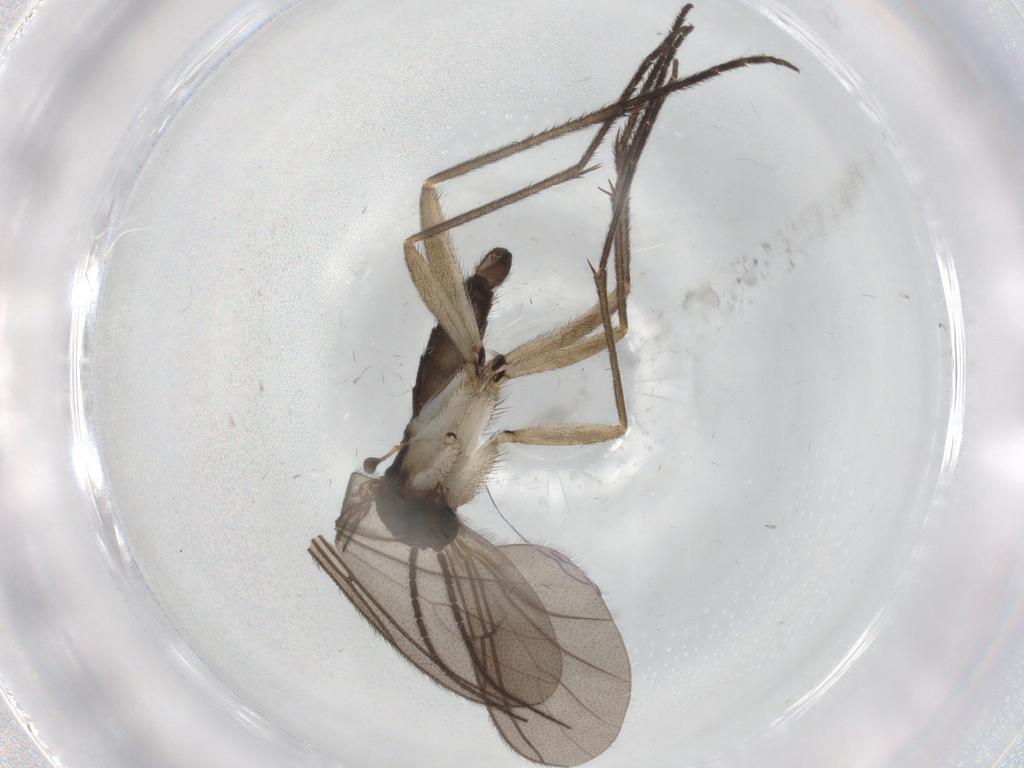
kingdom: Animalia
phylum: Arthropoda
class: Insecta
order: Diptera
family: Sciaridae
